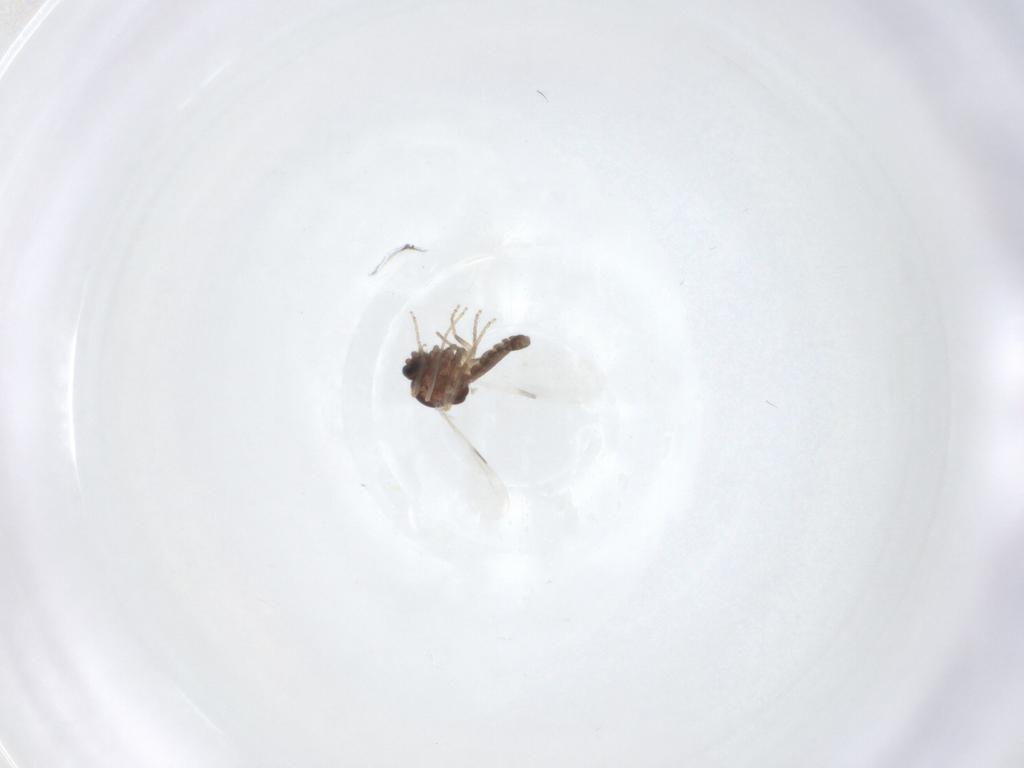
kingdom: Animalia
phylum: Arthropoda
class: Insecta
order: Diptera
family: Ceratopogonidae
